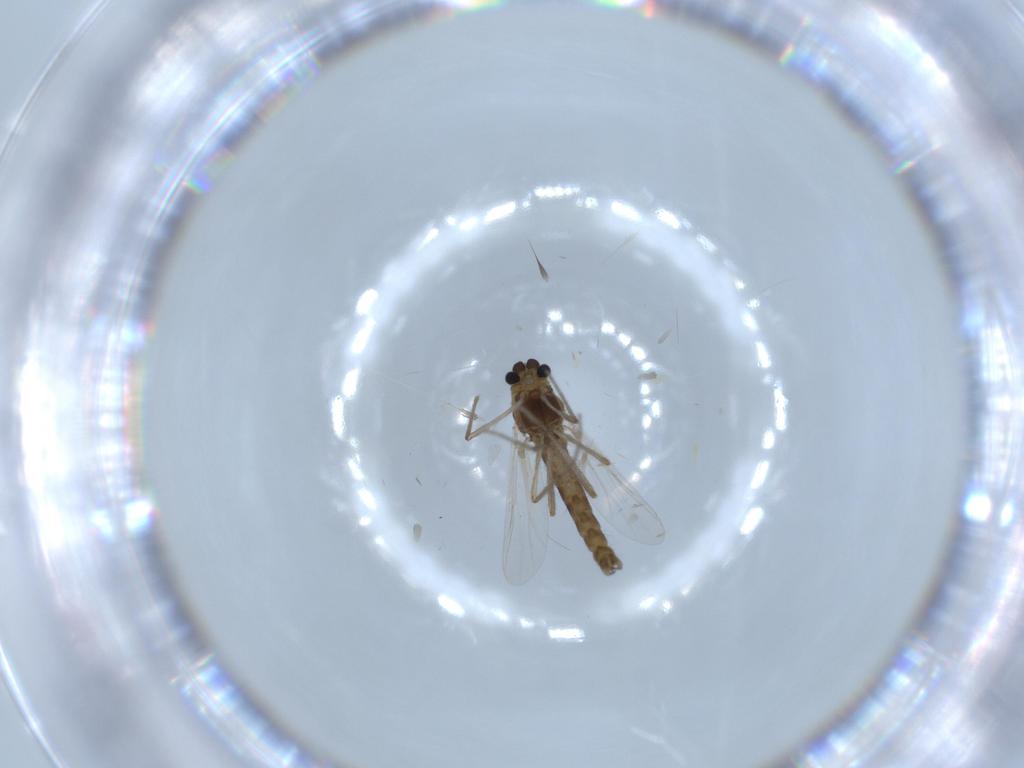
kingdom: Animalia
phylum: Arthropoda
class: Insecta
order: Diptera
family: Chironomidae
